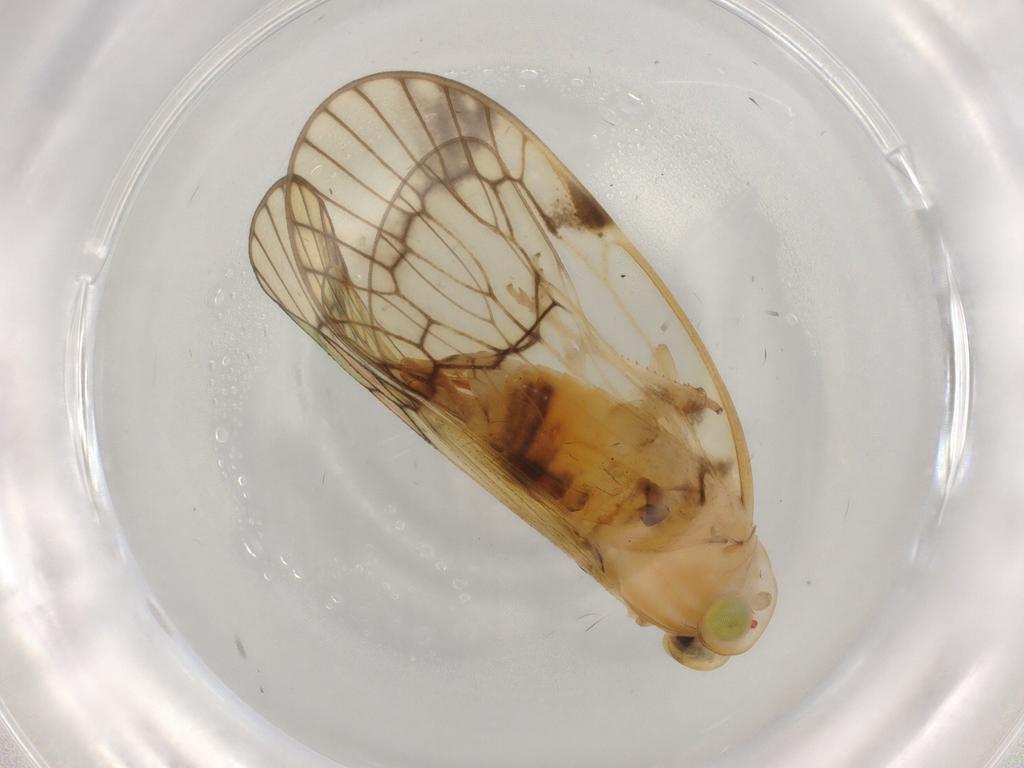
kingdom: Animalia
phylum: Arthropoda
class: Insecta
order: Hemiptera
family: Cixiidae
